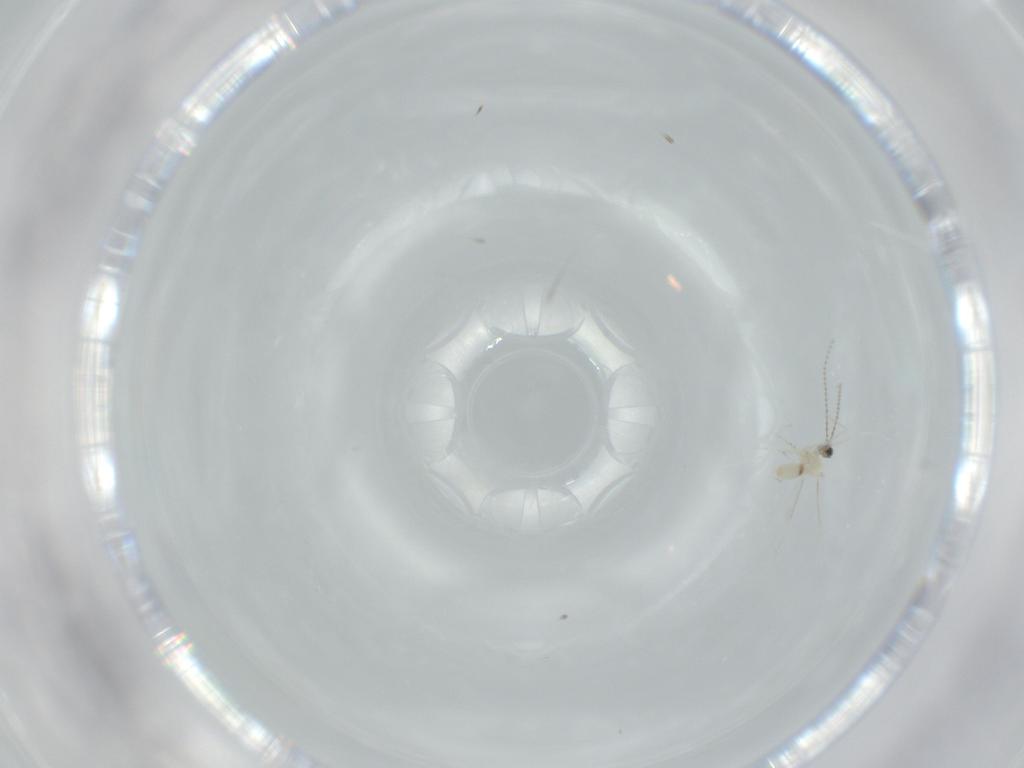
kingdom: Animalia
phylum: Arthropoda
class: Insecta
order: Diptera
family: Cecidomyiidae
